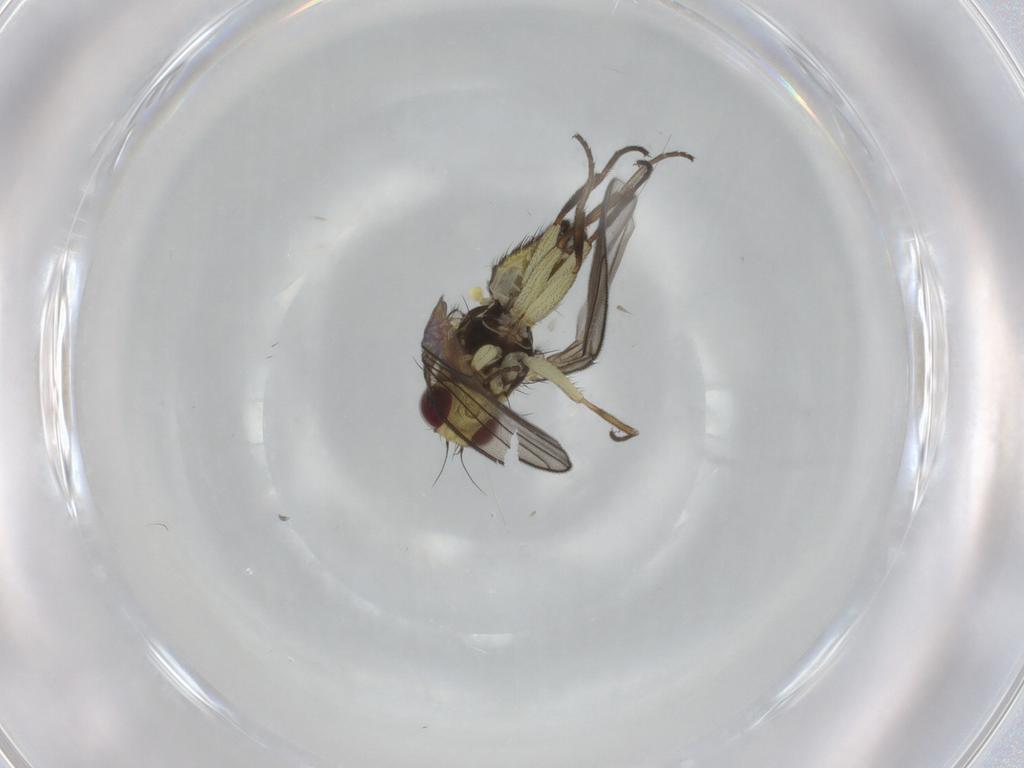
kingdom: Animalia
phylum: Arthropoda
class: Insecta
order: Diptera
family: Agromyzidae
